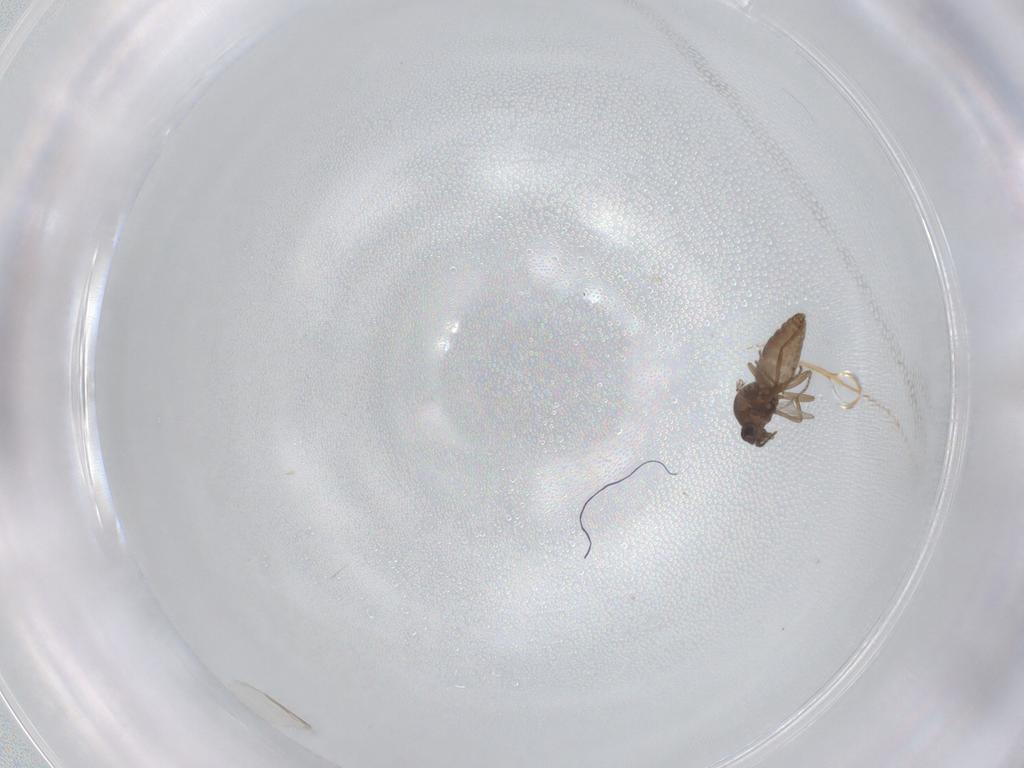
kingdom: Animalia
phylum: Arthropoda
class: Insecta
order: Diptera
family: Ceratopogonidae
